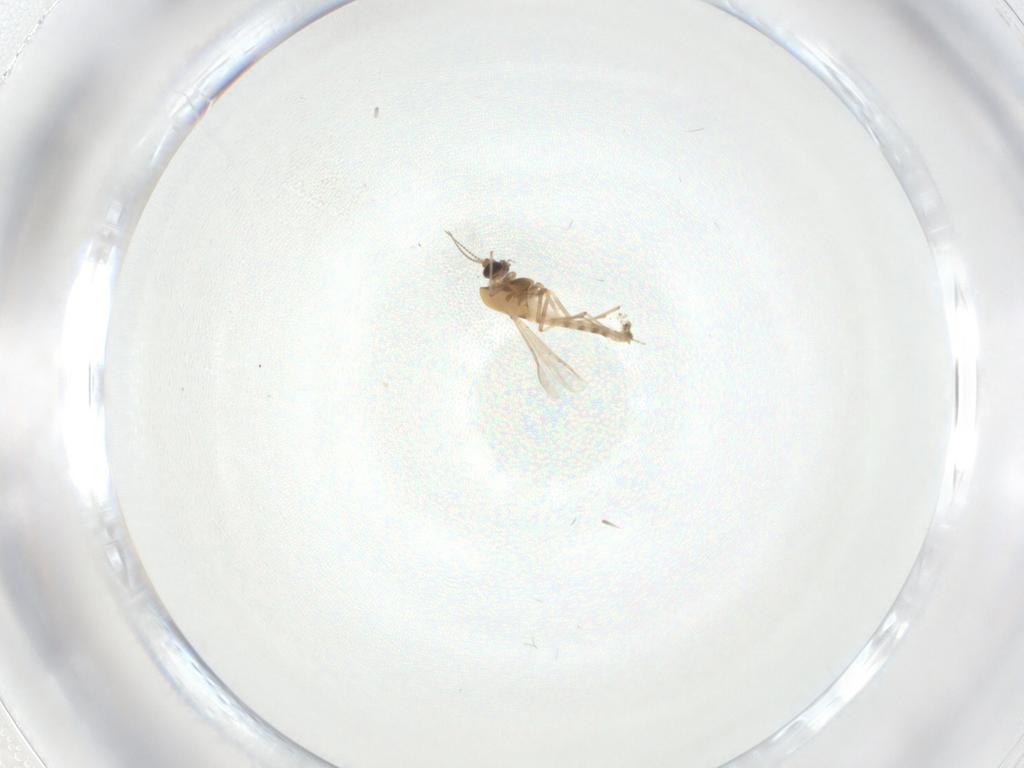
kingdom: Animalia
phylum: Arthropoda
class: Insecta
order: Diptera
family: Chironomidae
